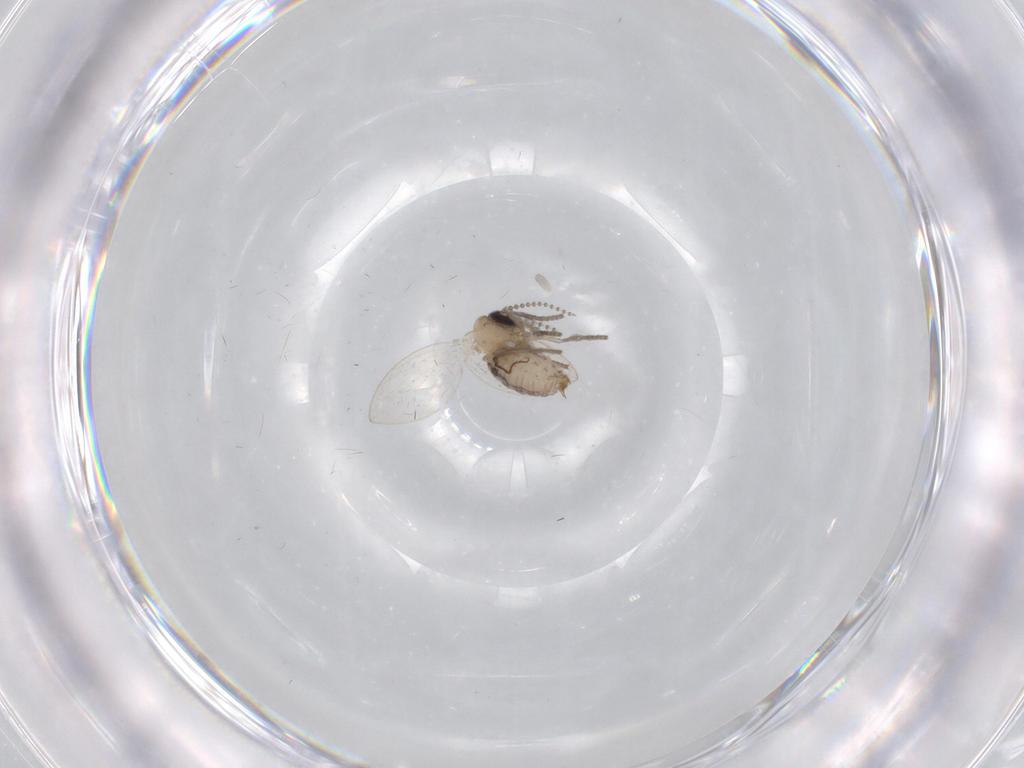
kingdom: Animalia
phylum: Arthropoda
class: Insecta
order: Diptera
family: Psychodidae
